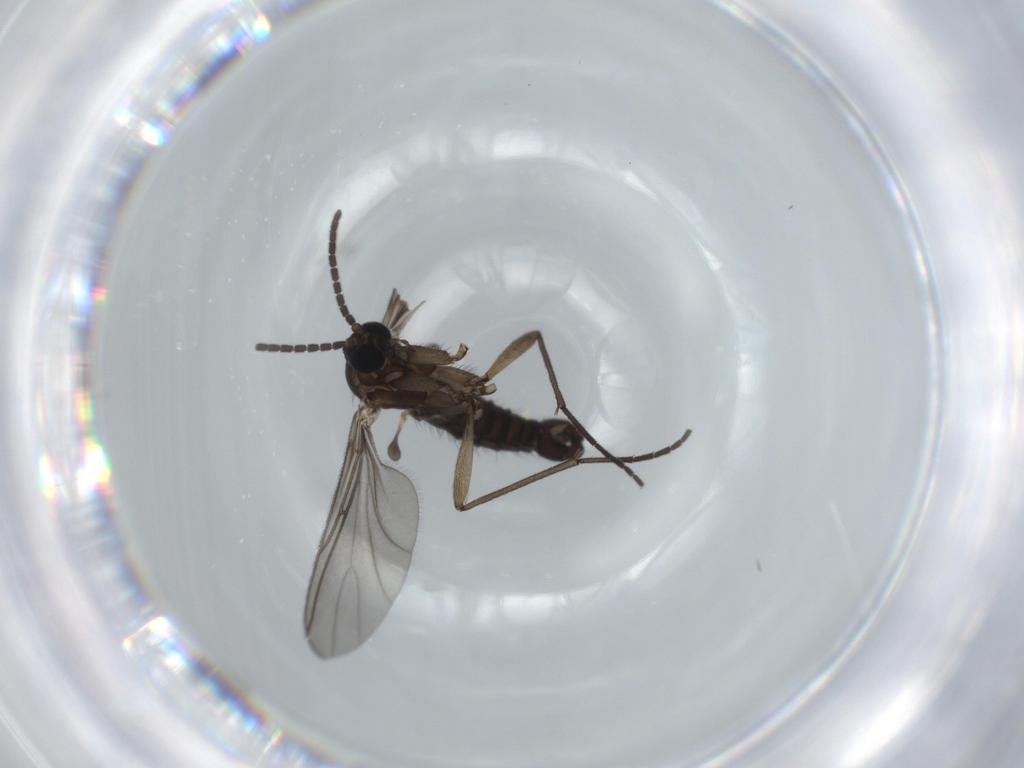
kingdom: Animalia
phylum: Arthropoda
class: Insecta
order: Diptera
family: Sciaridae
